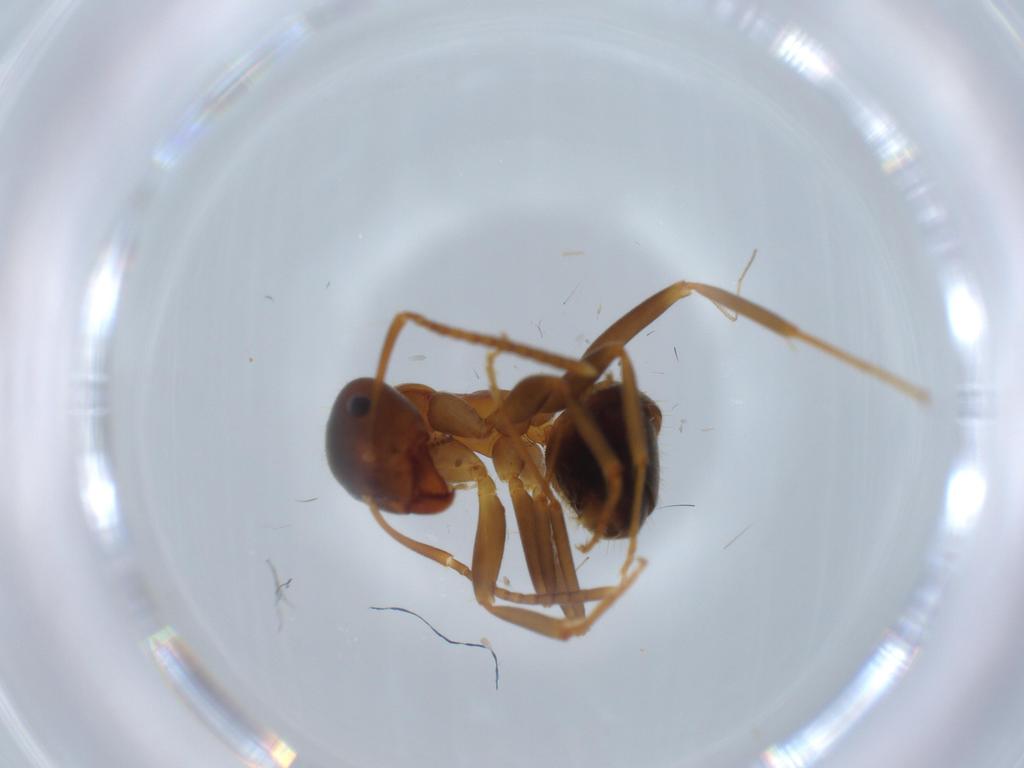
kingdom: Animalia
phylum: Arthropoda
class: Insecta
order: Hymenoptera
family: Formicidae
